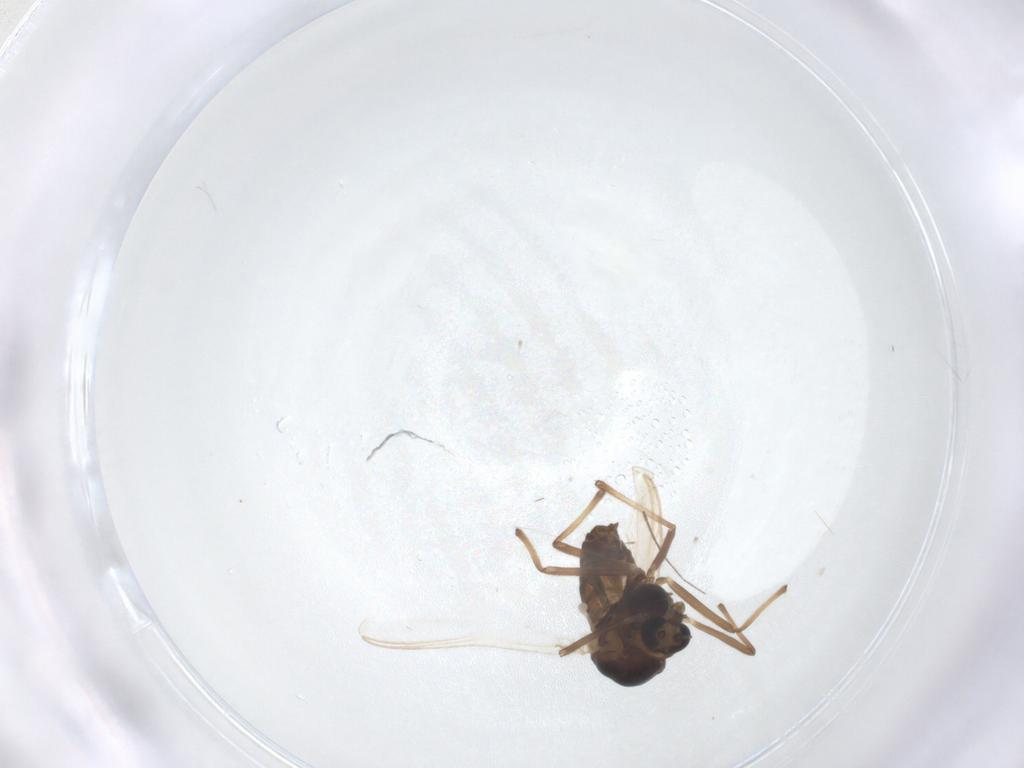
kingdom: Animalia
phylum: Arthropoda
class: Insecta
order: Diptera
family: Chironomidae
